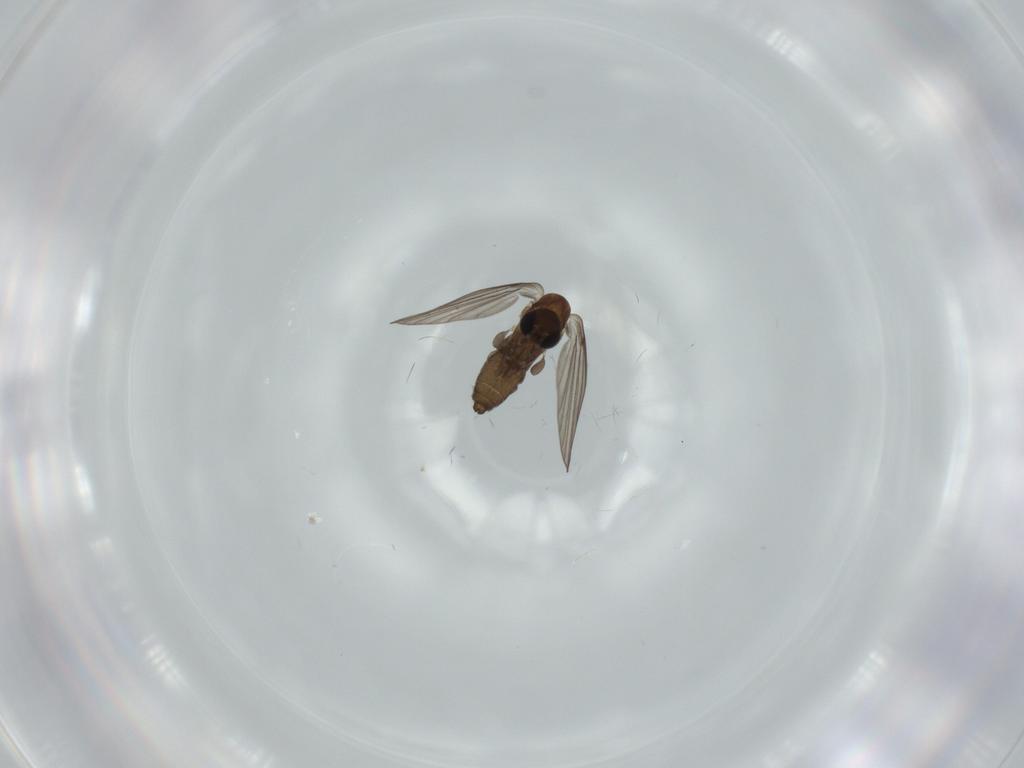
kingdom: Animalia
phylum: Arthropoda
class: Insecta
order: Diptera
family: Psychodidae
